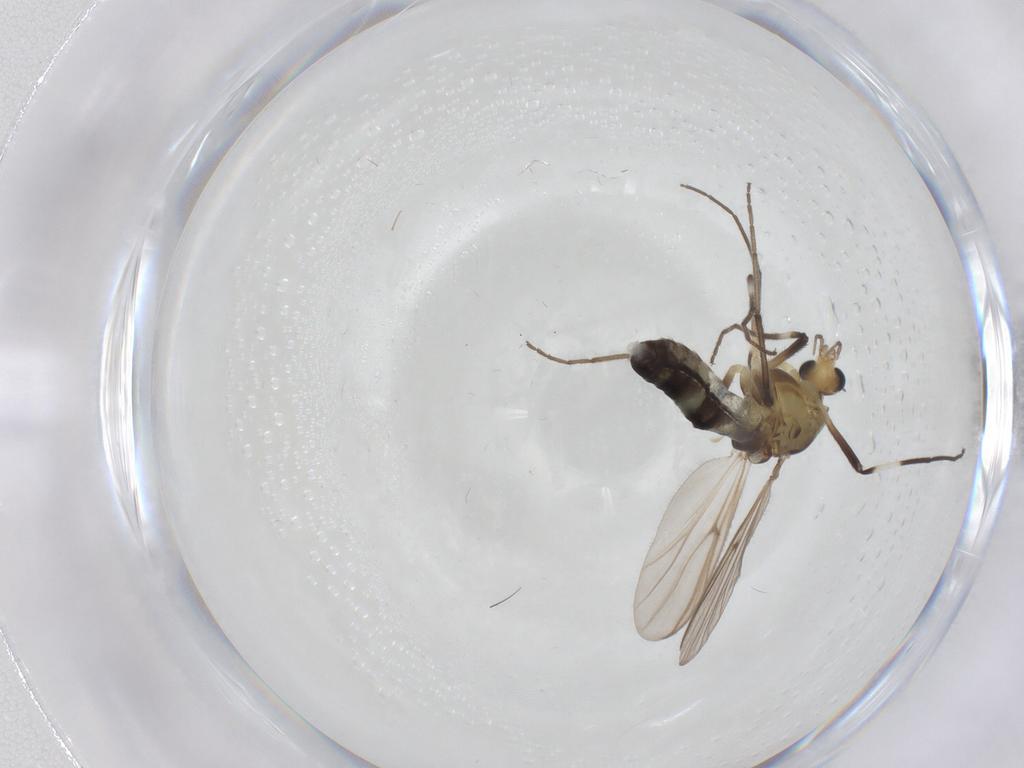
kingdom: Animalia
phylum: Arthropoda
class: Insecta
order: Diptera
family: Chironomidae
